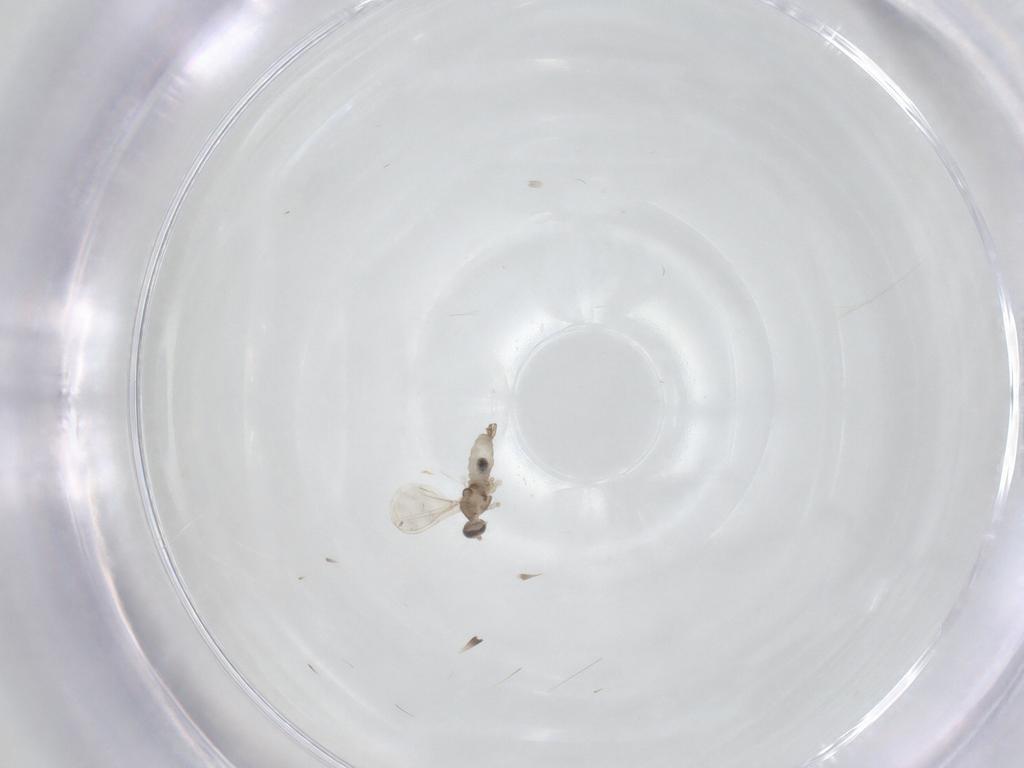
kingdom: Animalia
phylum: Arthropoda
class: Insecta
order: Diptera
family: Cecidomyiidae
